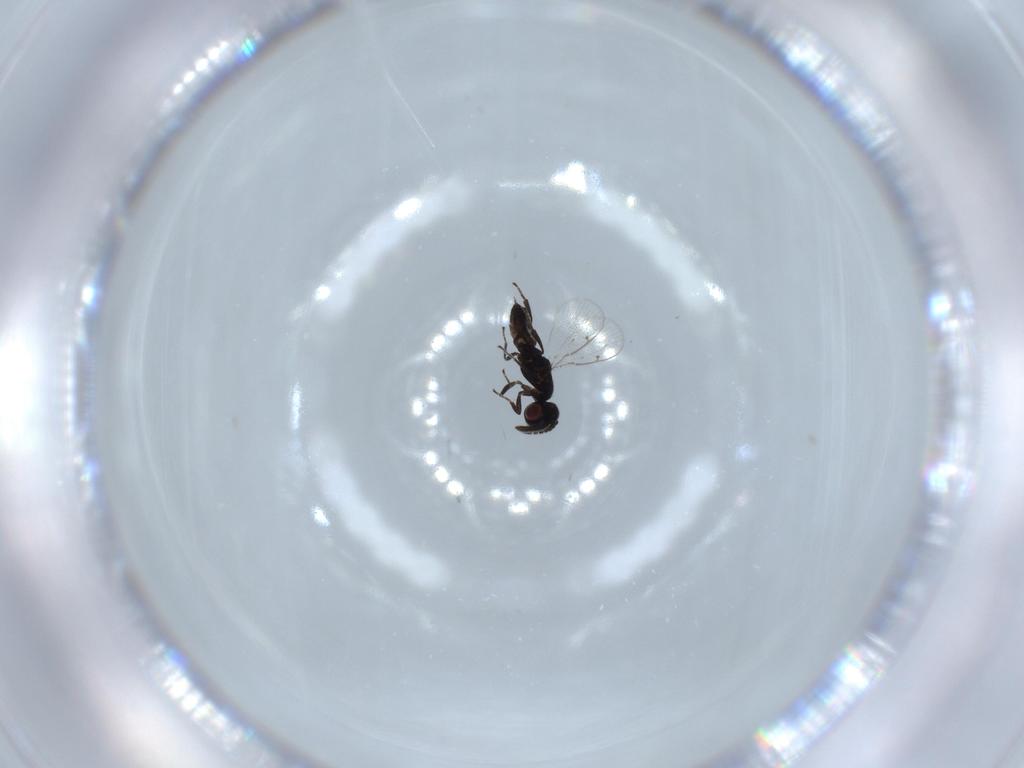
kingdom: Animalia
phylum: Arthropoda
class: Insecta
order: Hymenoptera
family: Pteromalidae
